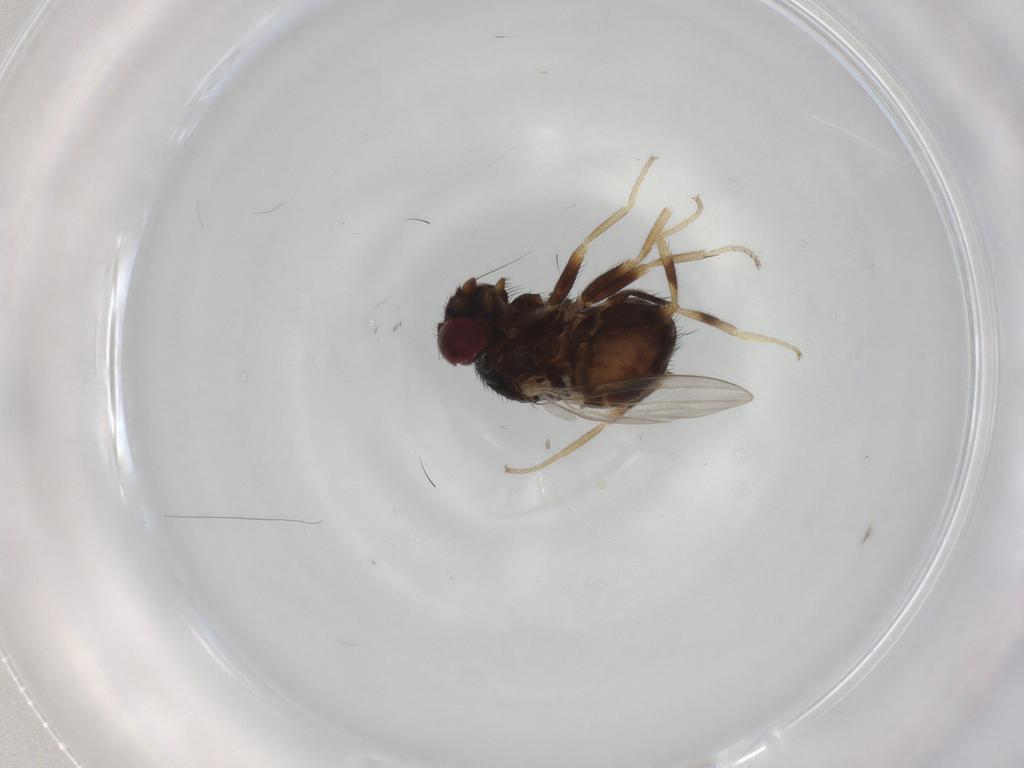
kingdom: Animalia
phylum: Arthropoda
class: Insecta
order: Diptera
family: Milichiidae
